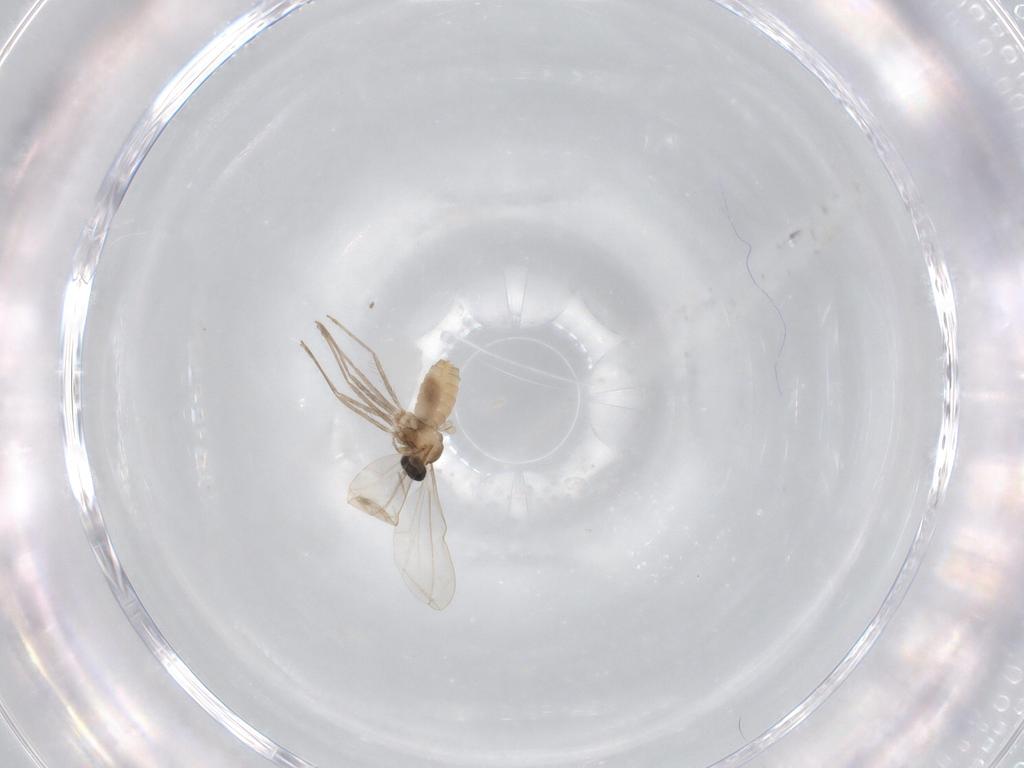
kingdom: Animalia
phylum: Arthropoda
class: Insecta
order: Diptera
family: Cecidomyiidae
